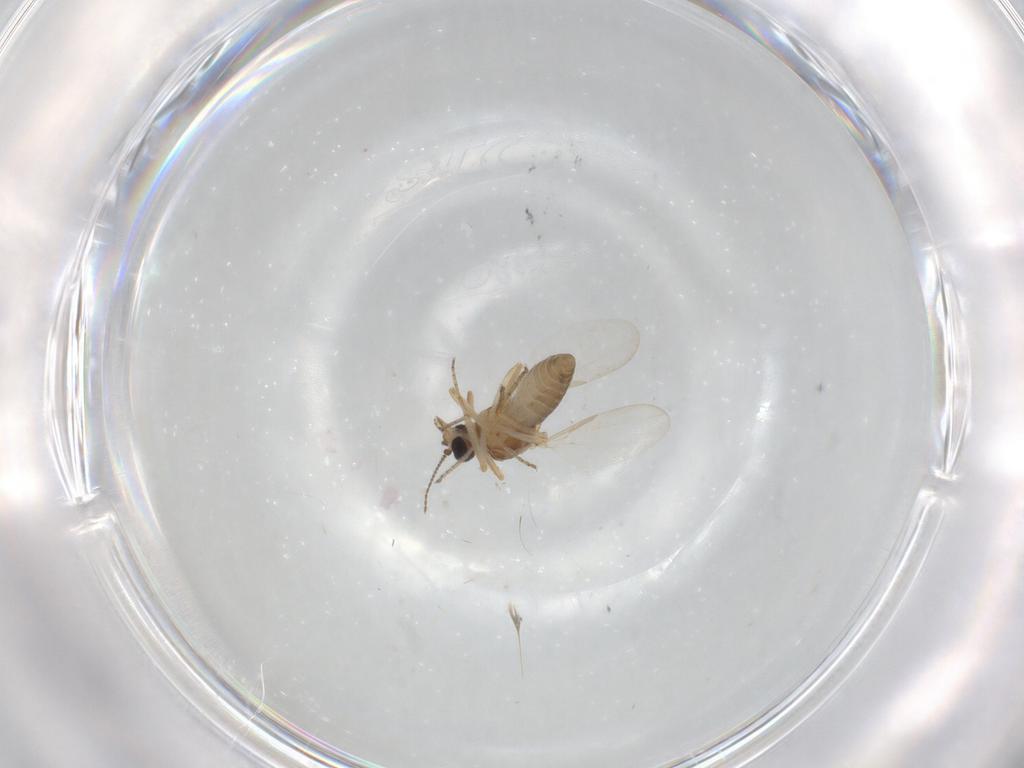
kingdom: Animalia
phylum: Arthropoda
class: Insecta
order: Diptera
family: Ceratopogonidae
